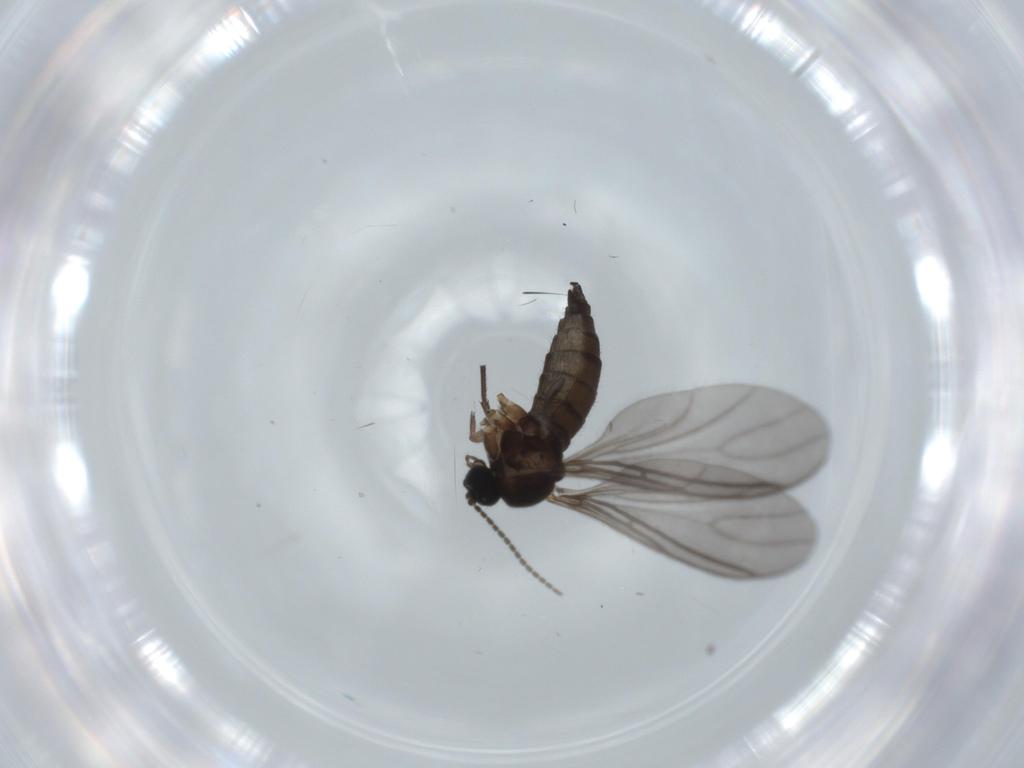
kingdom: Animalia
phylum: Arthropoda
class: Insecta
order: Diptera
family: Sciaridae
